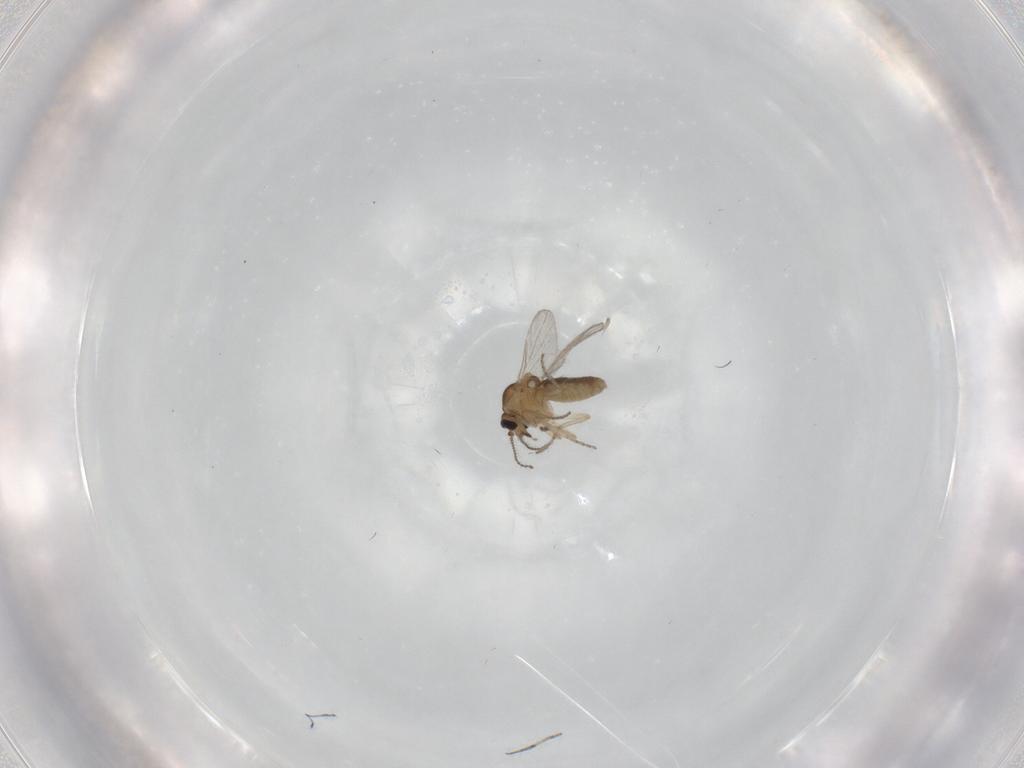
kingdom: Animalia
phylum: Arthropoda
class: Insecta
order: Diptera
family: Ceratopogonidae
